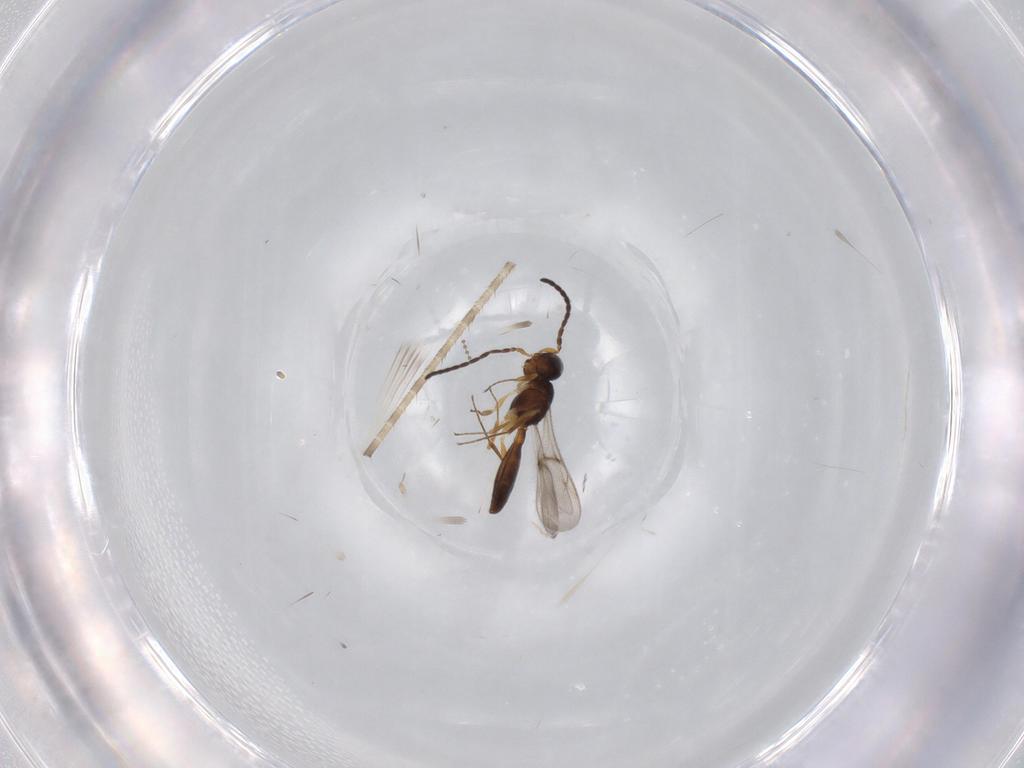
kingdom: Animalia
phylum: Arthropoda
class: Insecta
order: Hymenoptera
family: Scelionidae
